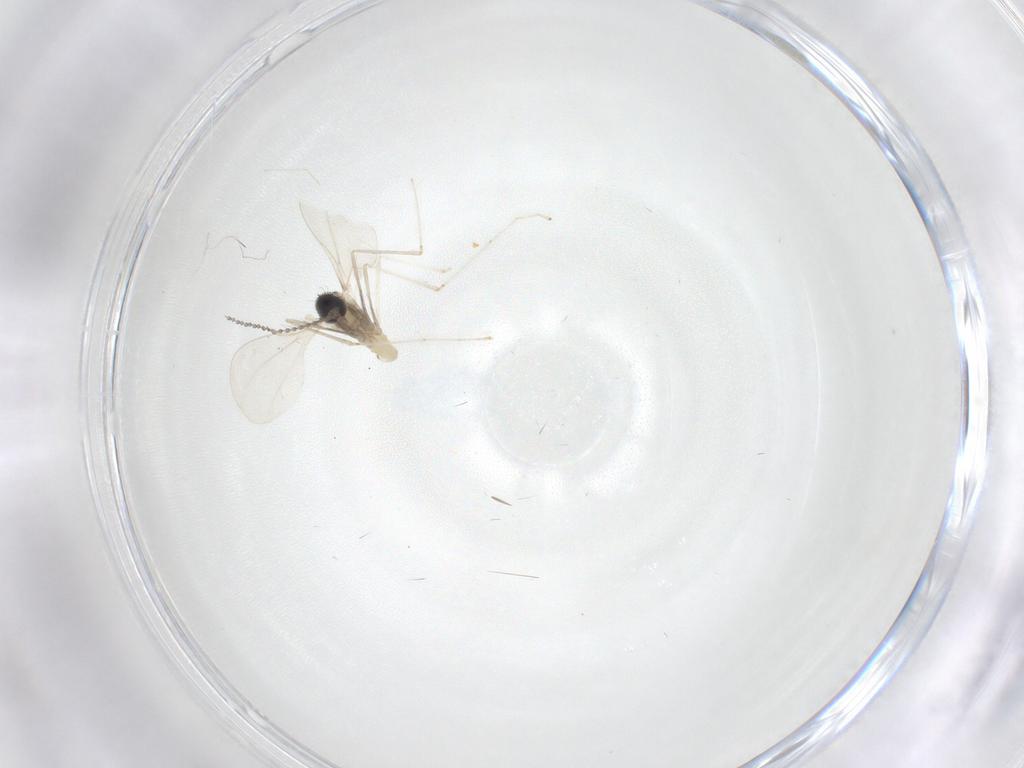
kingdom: Animalia
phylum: Arthropoda
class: Insecta
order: Diptera
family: Cecidomyiidae
